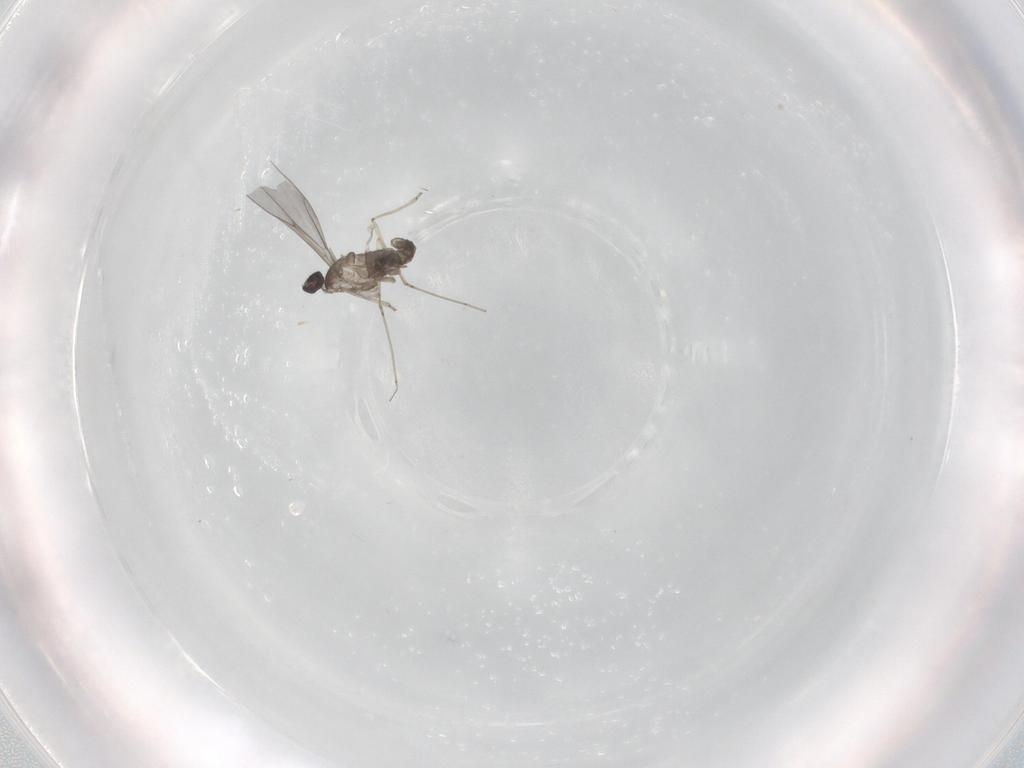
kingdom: Animalia
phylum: Arthropoda
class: Insecta
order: Diptera
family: Cecidomyiidae
